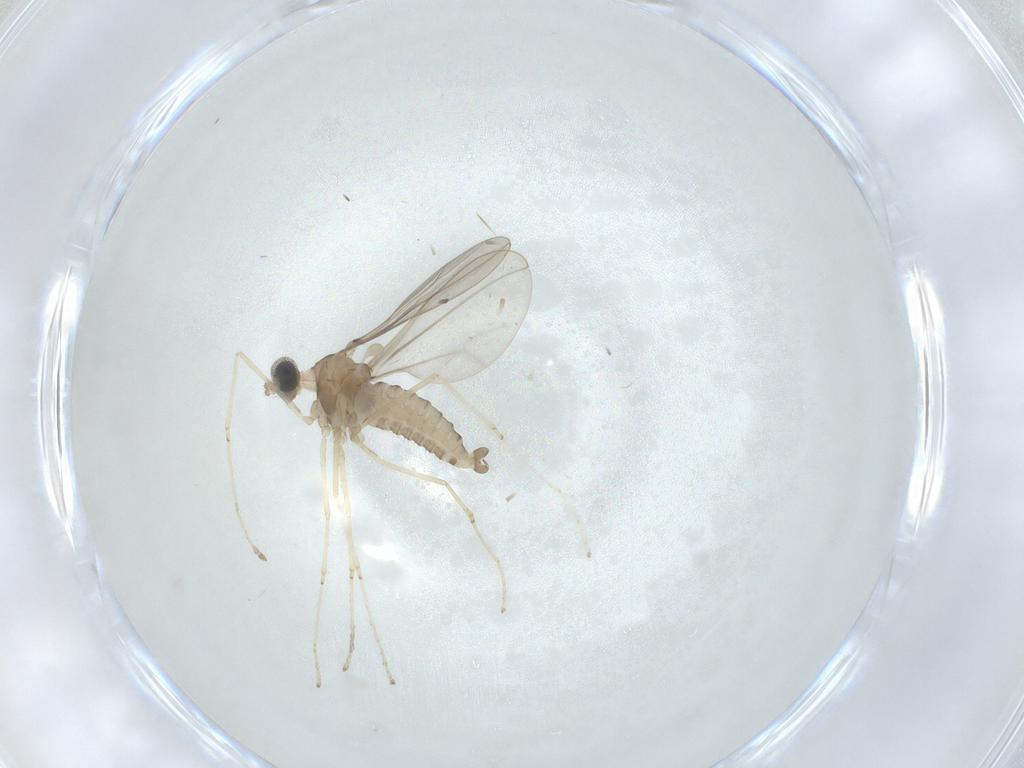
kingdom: Animalia
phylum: Arthropoda
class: Insecta
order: Diptera
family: Cecidomyiidae
